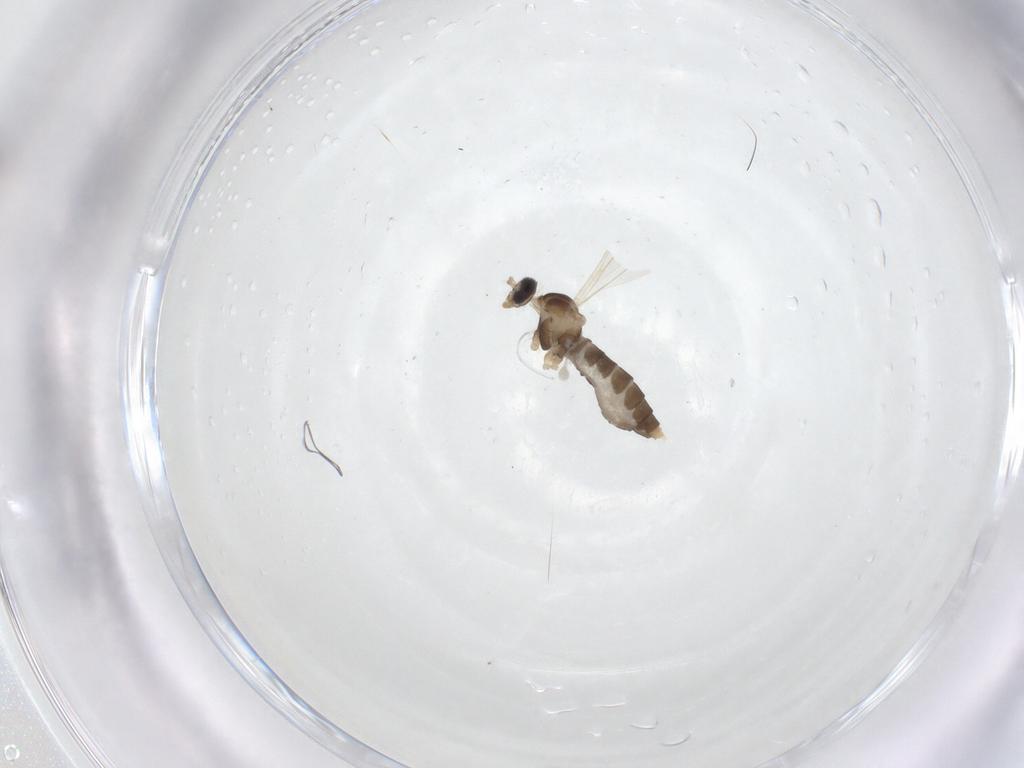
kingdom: Animalia
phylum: Arthropoda
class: Insecta
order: Diptera
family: Cecidomyiidae
